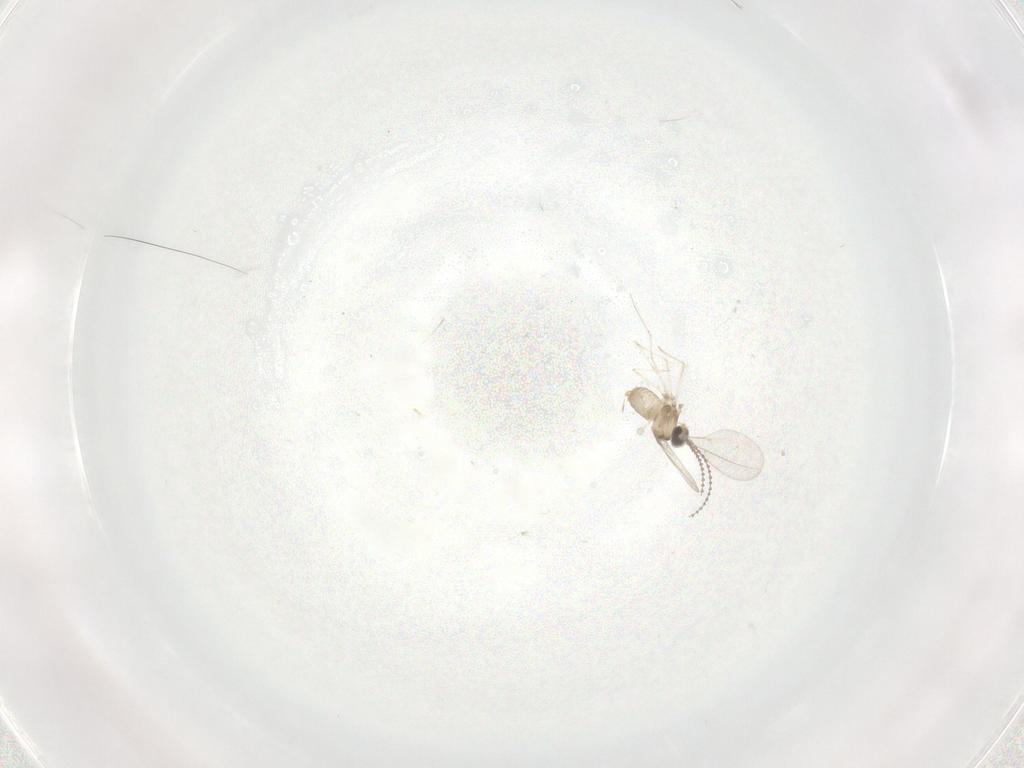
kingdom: Animalia
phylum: Arthropoda
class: Insecta
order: Diptera
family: Cecidomyiidae
